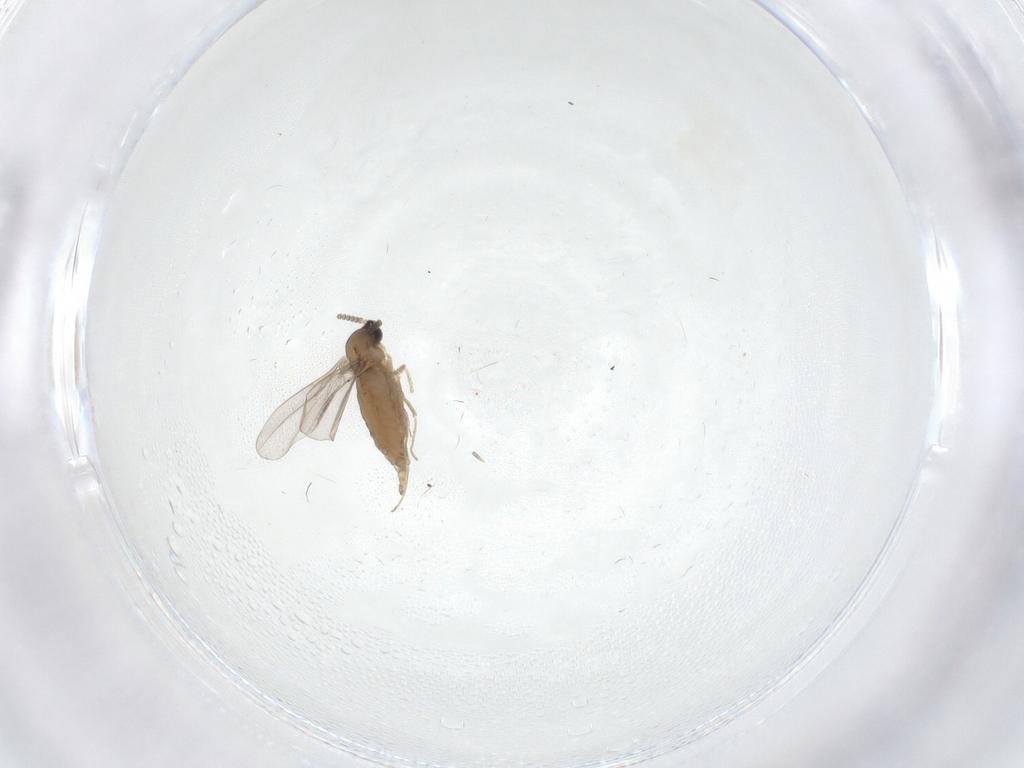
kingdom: Animalia
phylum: Arthropoda
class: Insecta
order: Diptera
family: Cecidomyiidae
